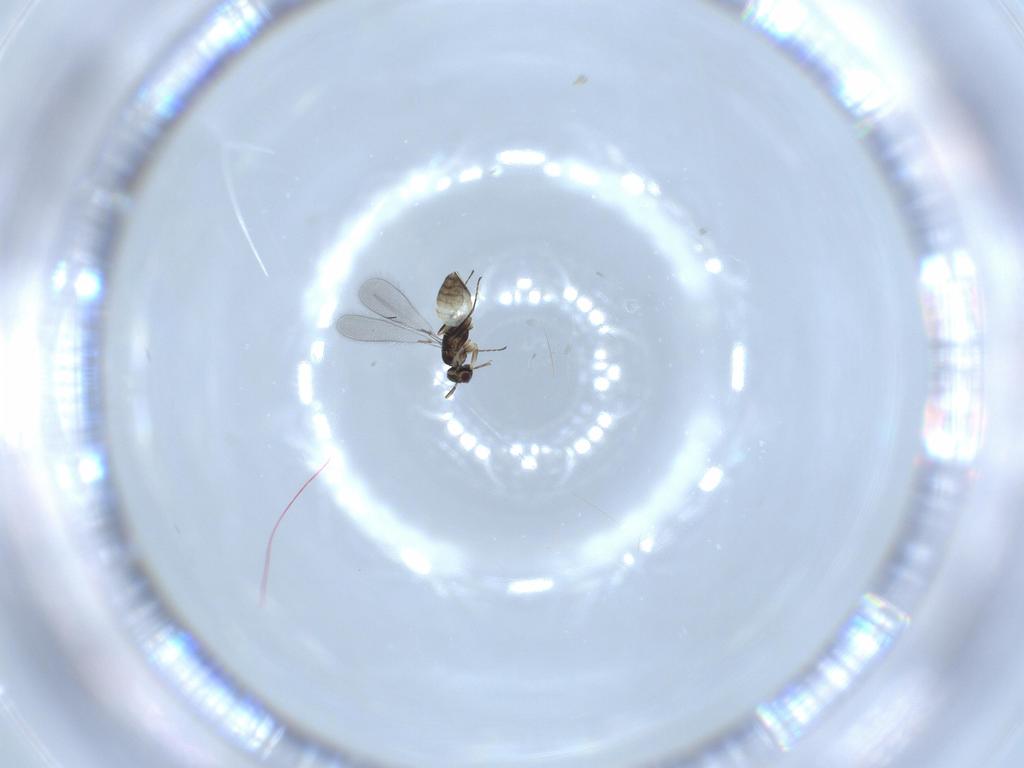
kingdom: Animalia
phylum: Arthropoda
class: Insecta
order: Hymenoptera
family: Mymaridae
